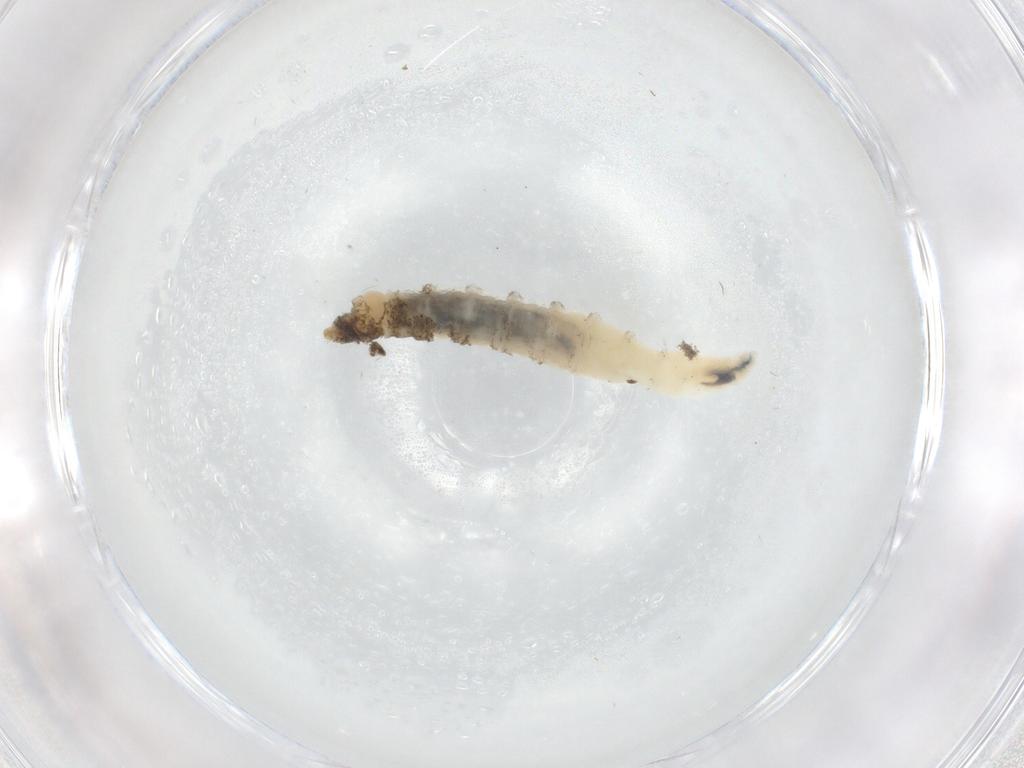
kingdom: Animalia
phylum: Arthropoda
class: Insecta
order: Diptera
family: Drosophilidae
